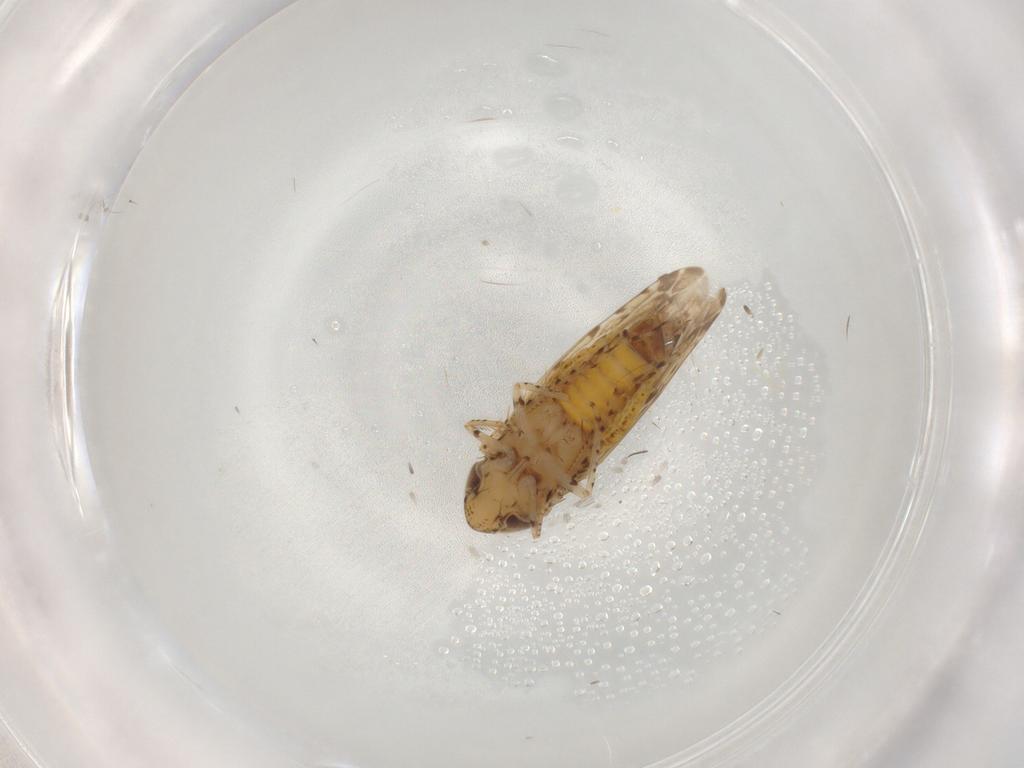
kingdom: Animalia
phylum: Arthropoda
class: Insecta
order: Hemiptera
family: Cicadellidae
